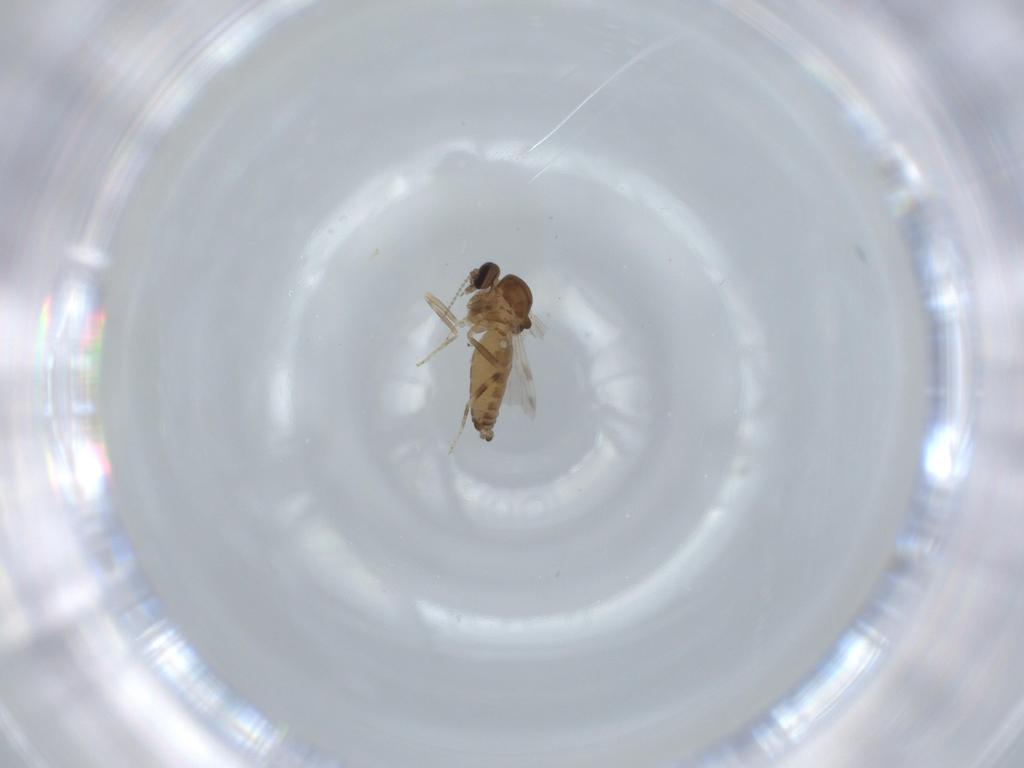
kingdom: Animalia
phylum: Arthropoda
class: Insecta
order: Diptera
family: Ceratopogonidae
